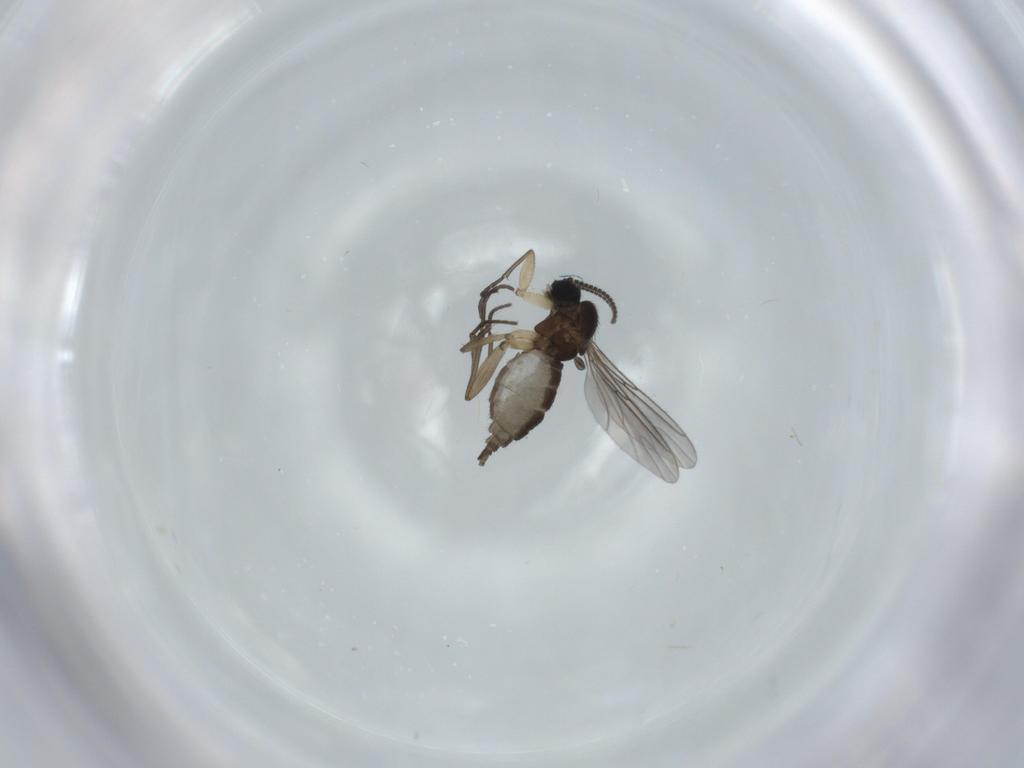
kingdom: Animalia
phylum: Arthropoda
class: Insecta
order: Diptera
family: Sciaridae
